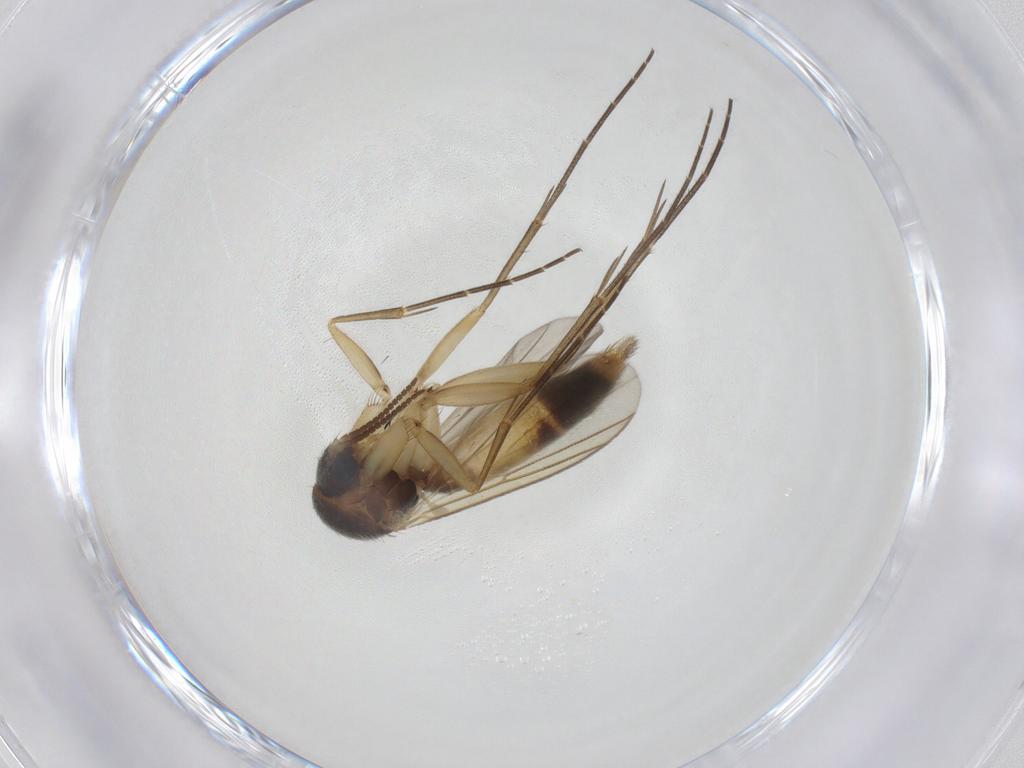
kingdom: Animalia
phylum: Arthropoda
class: Insecta
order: Diptera
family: Mycetophilidae
